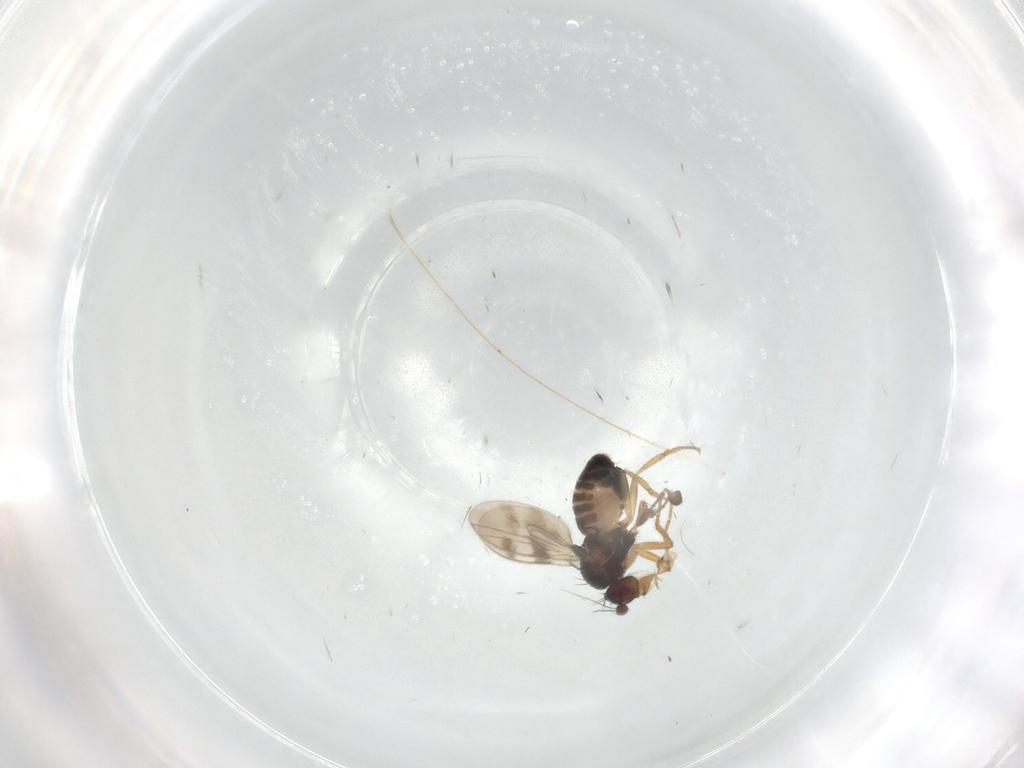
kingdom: Animalia
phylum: Arthropoda
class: Insecta
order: Diptera
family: Sphaeroceridae
